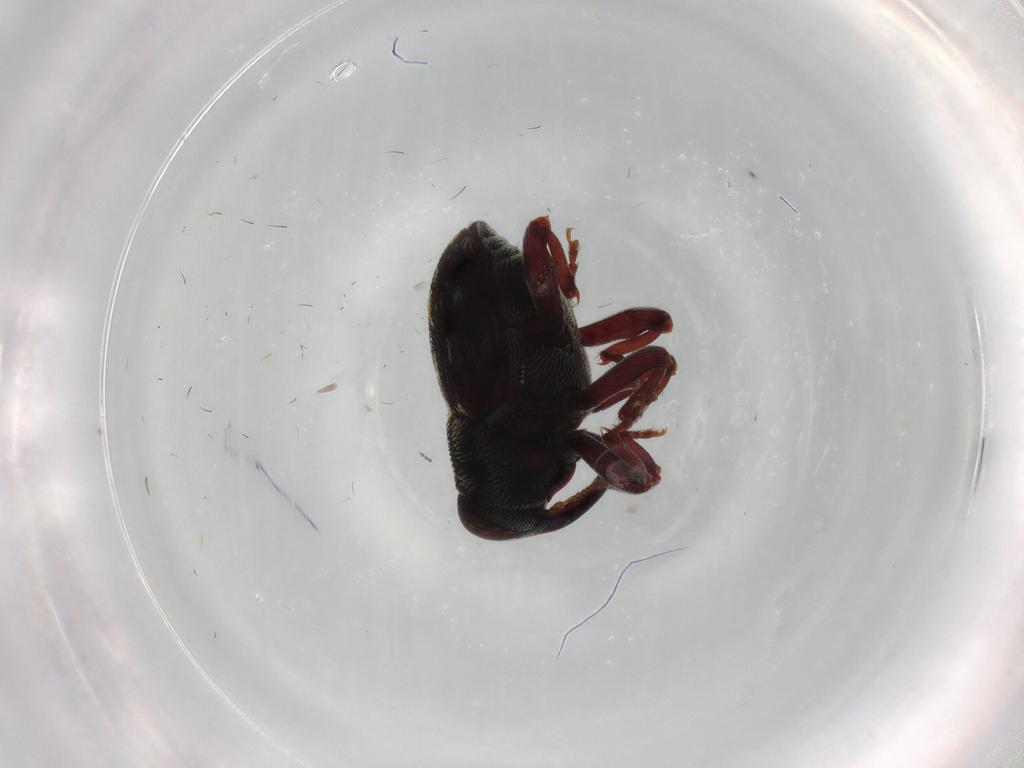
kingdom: Animalia
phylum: Arthropoda
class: Insecta
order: Coleoptera
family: Curculionidae
